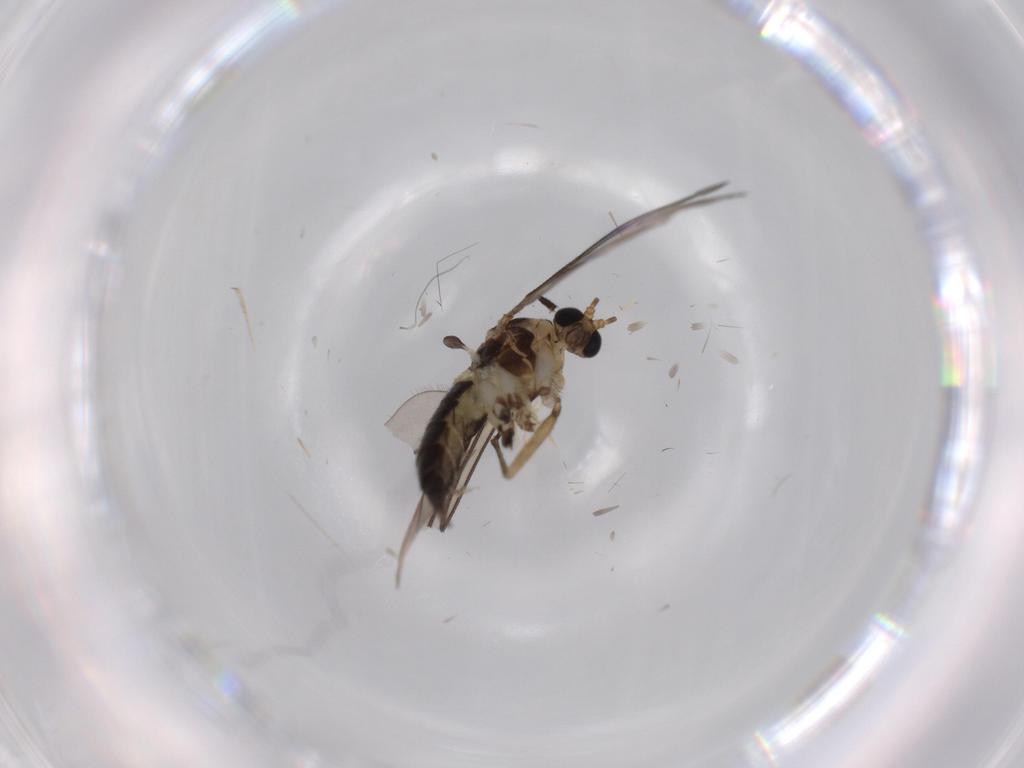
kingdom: Animalia
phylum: Arthropoda
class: Insecta
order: Diptera
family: Sciaridae
